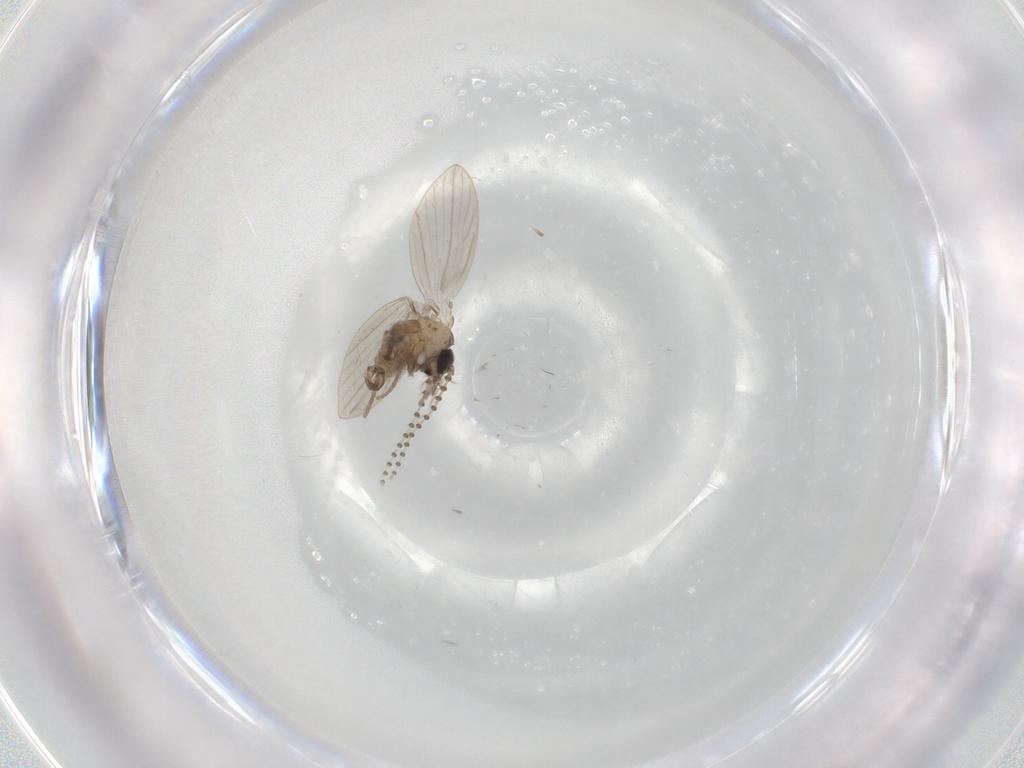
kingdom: Animalia
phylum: Arthropoda
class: Insecta
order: Diptera
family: Psychodidae
